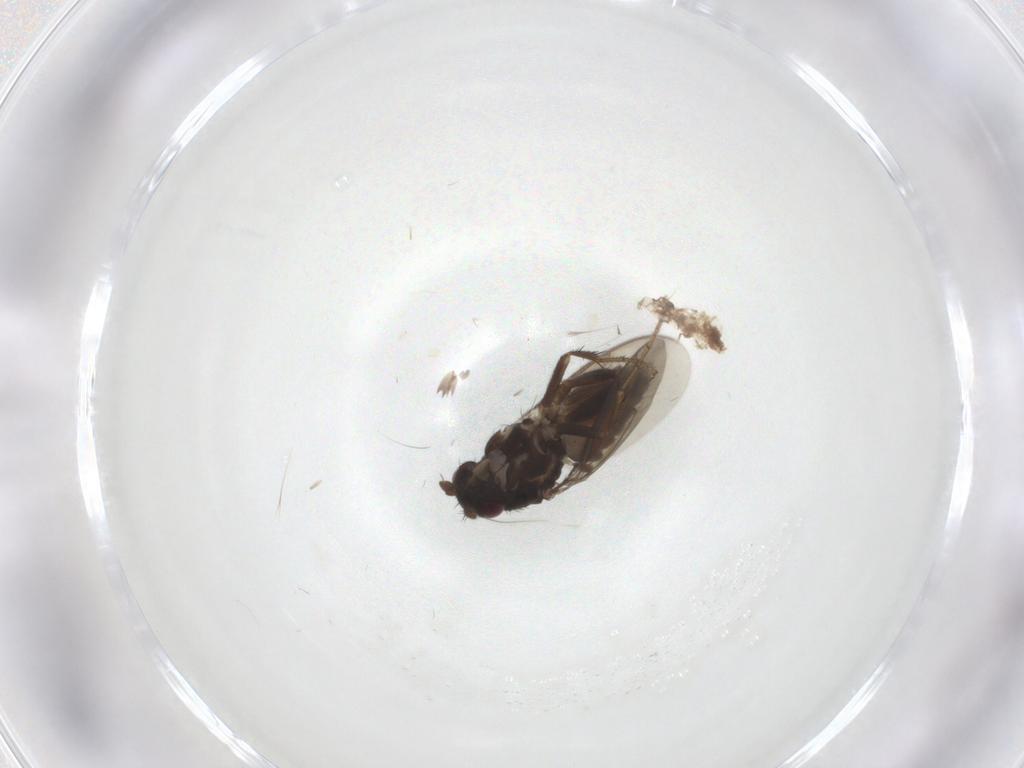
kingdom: Animalia
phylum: Arthropoda
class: Insecta
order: Diptera
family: Sphaeroceridae
